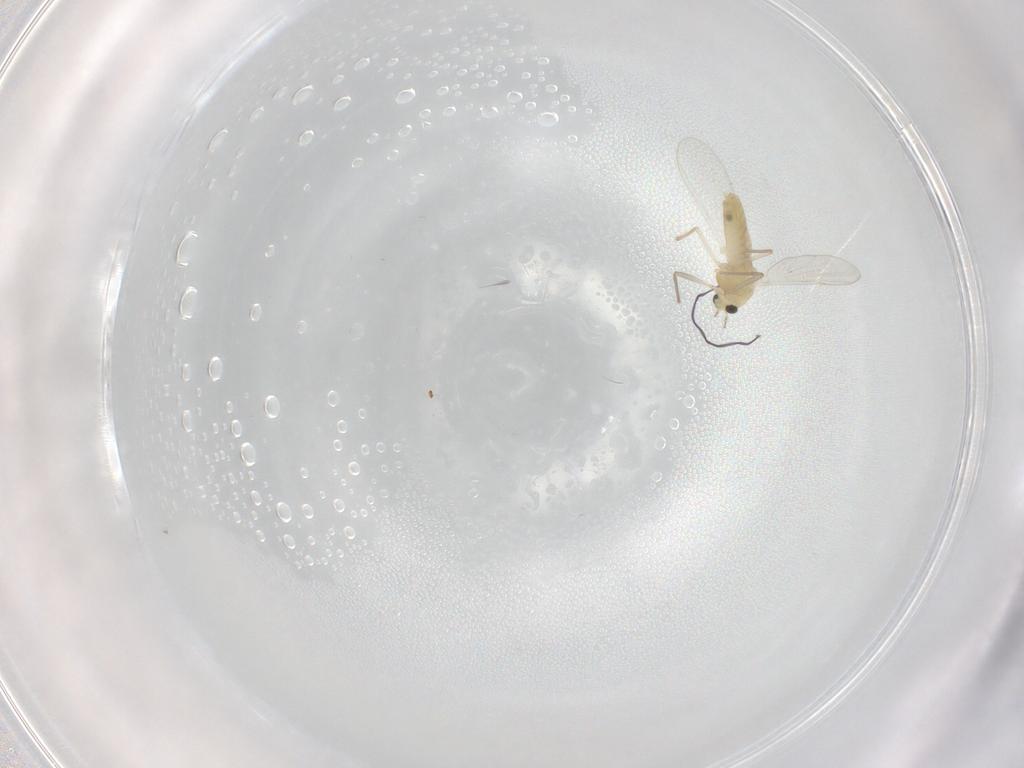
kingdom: Animalia
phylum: Arthropoda
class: Insecta
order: Diptera
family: Chironomidae
